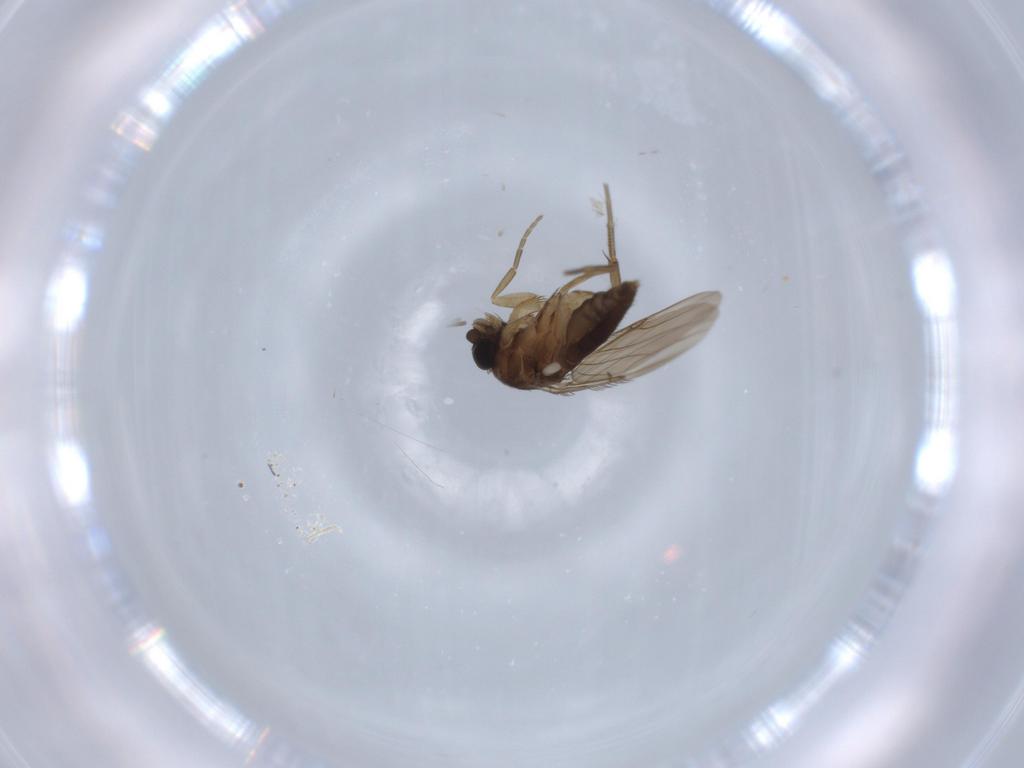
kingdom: Animalia
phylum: Arthropoda
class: Insecta
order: Diptera
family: Phoridae
